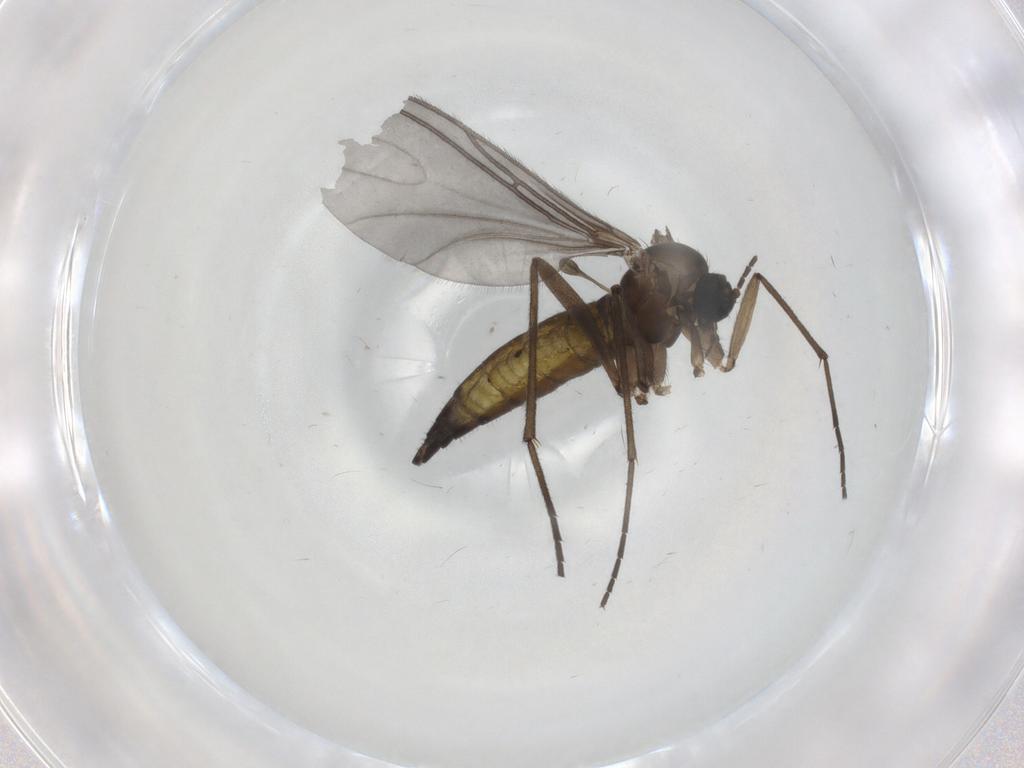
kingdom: Animalia
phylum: Arthropoda
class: Insecta
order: Diptera
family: Sciaridae
